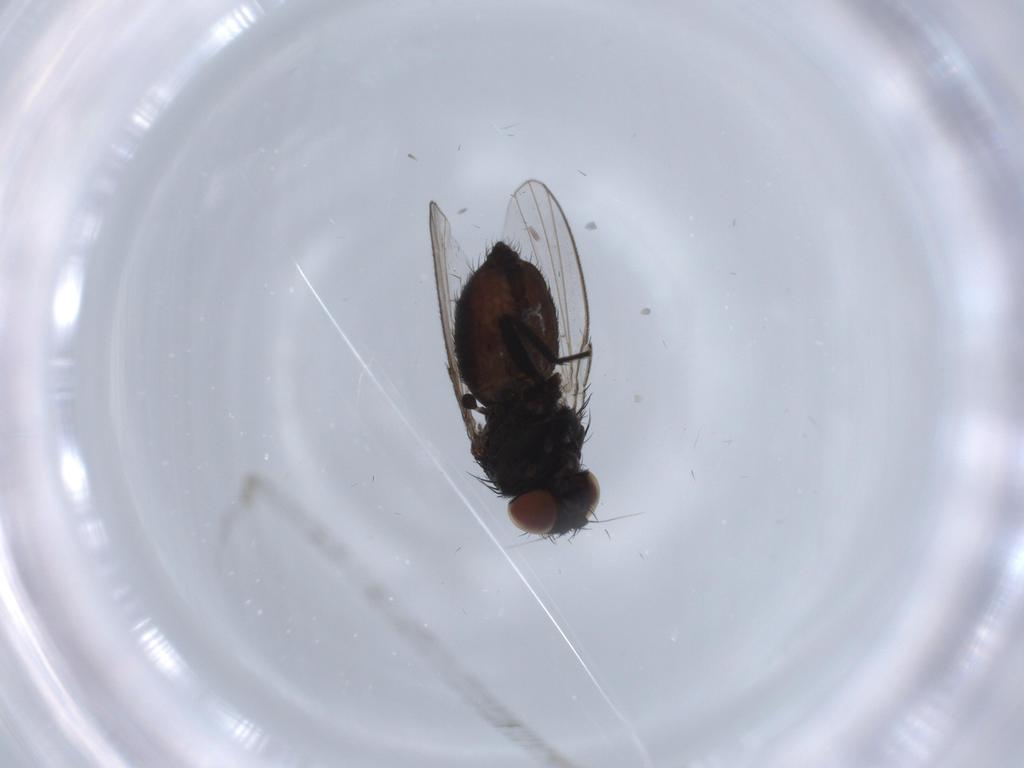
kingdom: Animalia
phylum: Arthropoda
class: Insecta
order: Diptera
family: Milichiidae
